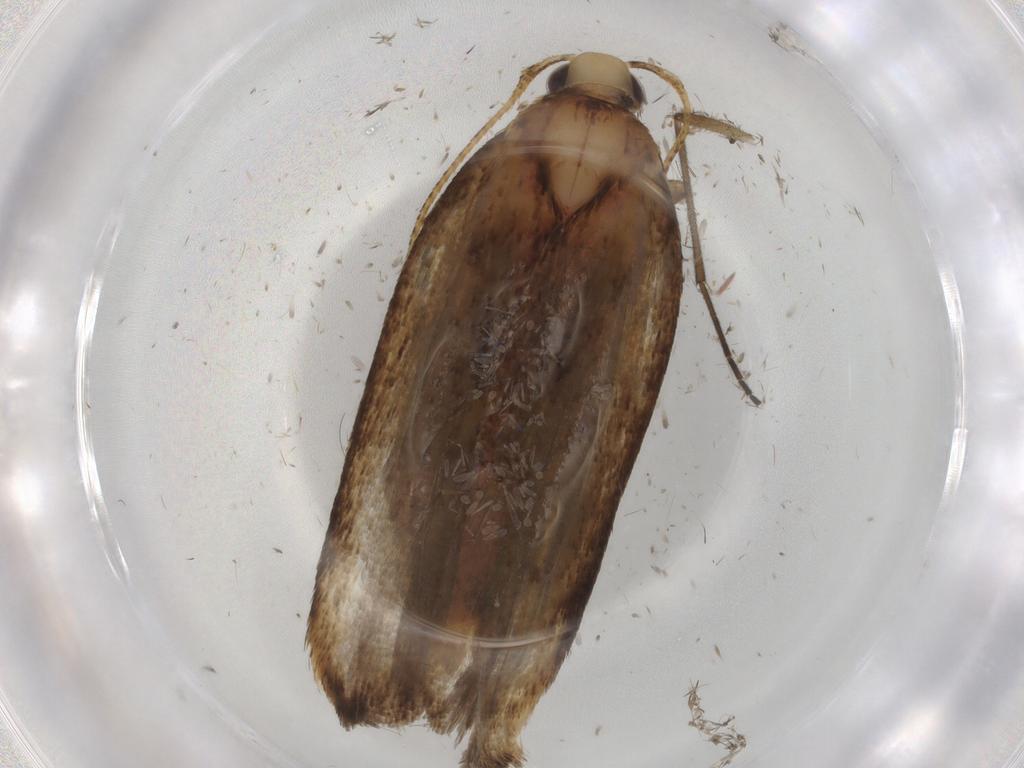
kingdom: Animalia
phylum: Arthropoda
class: Insecta
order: Lepidoptera
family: Autostichidae
